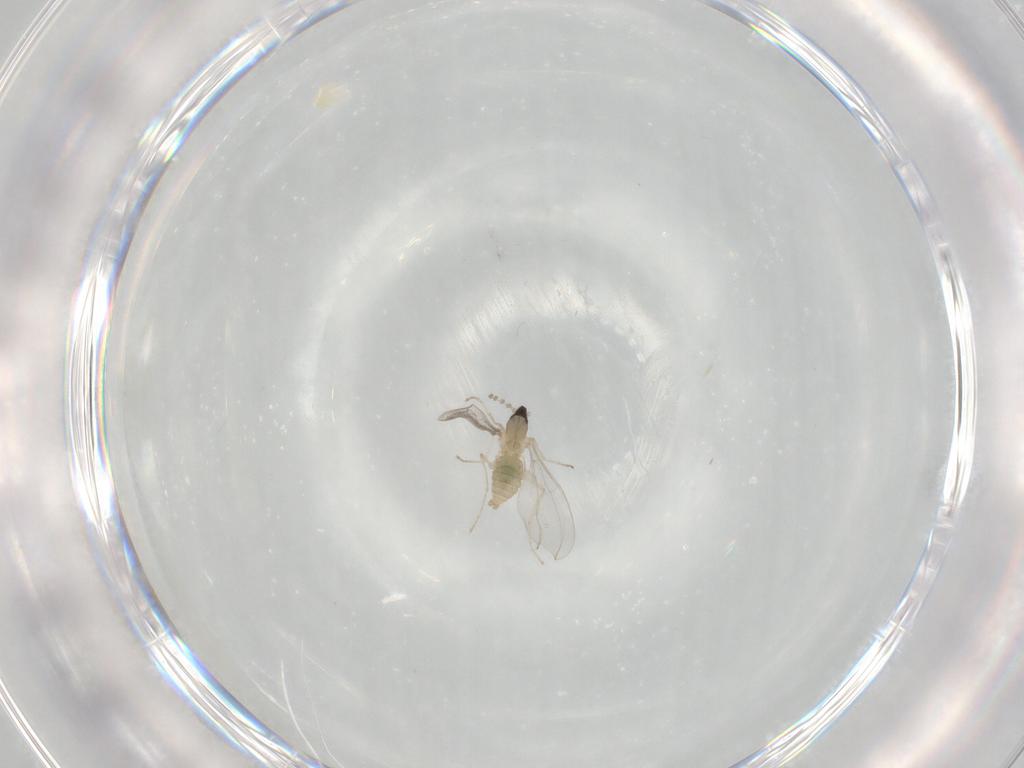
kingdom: Animalia
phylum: Arthropoda
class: Insecta
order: Diptera
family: Cecidomyiidae
